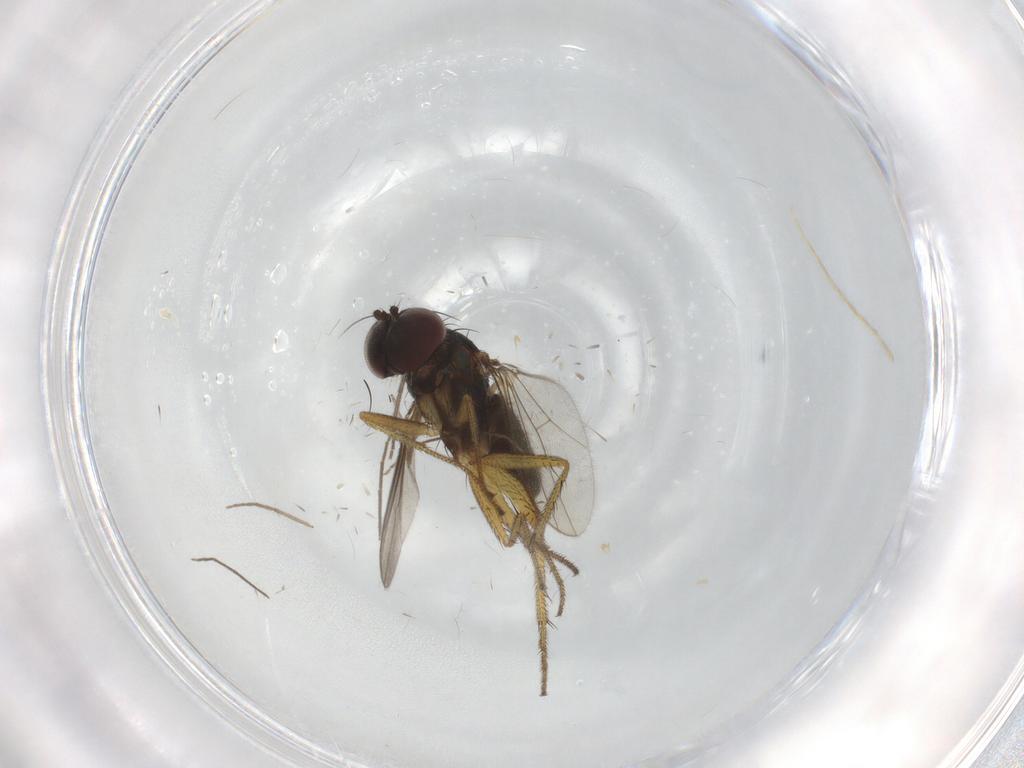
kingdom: Animalia
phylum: Arthropoda
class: Insecta
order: Diptera
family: Chironomidae
